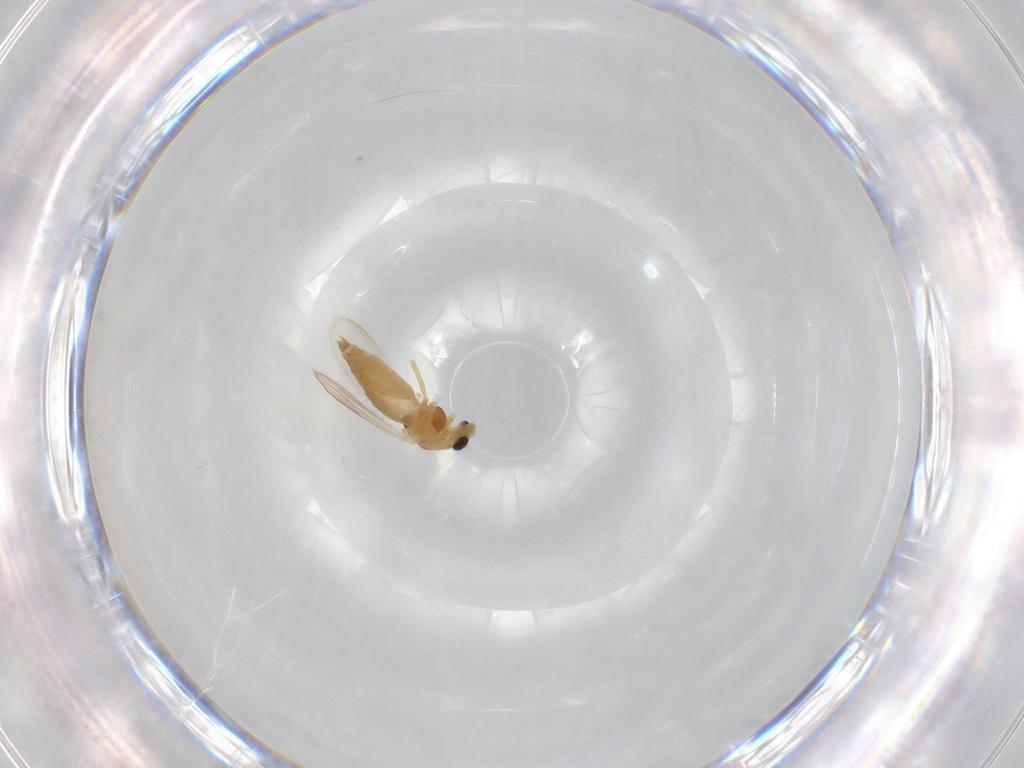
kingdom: Animalia
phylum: Arthropoda
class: Insecta
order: Diptera
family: Chironomidae
